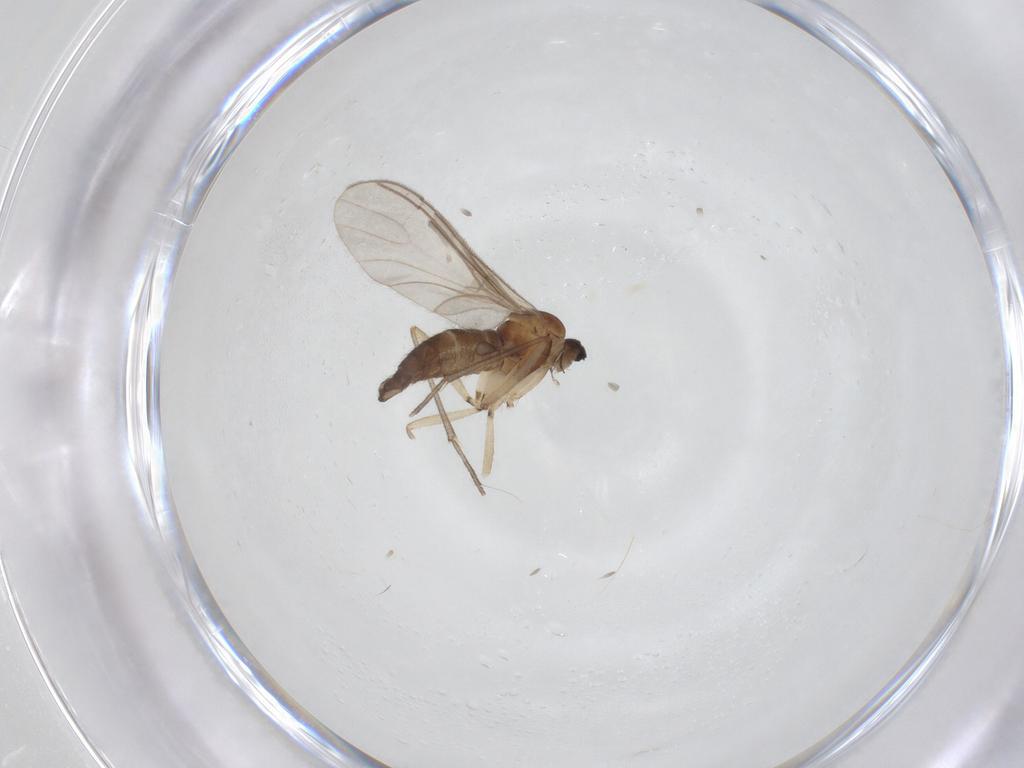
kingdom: Animalia
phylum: Arthropoda
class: Insecta
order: Diptera
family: Sciaridae
